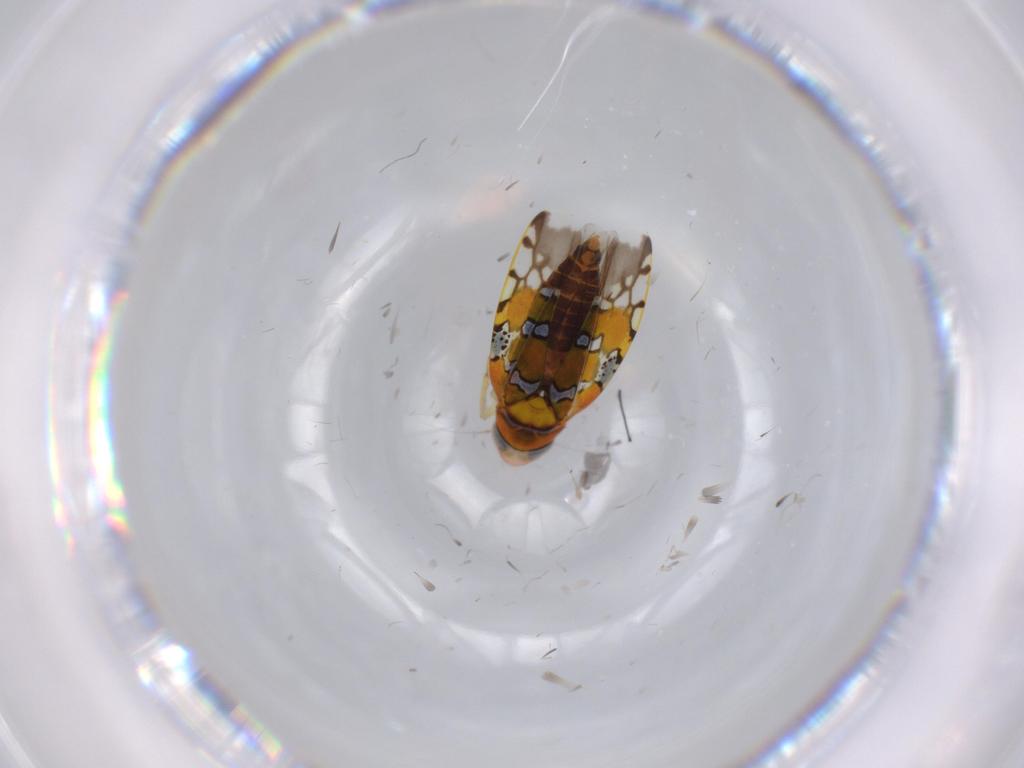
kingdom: Animalia
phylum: Arthropoda
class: Insecta
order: Hemiptera
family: Cicadellidae
